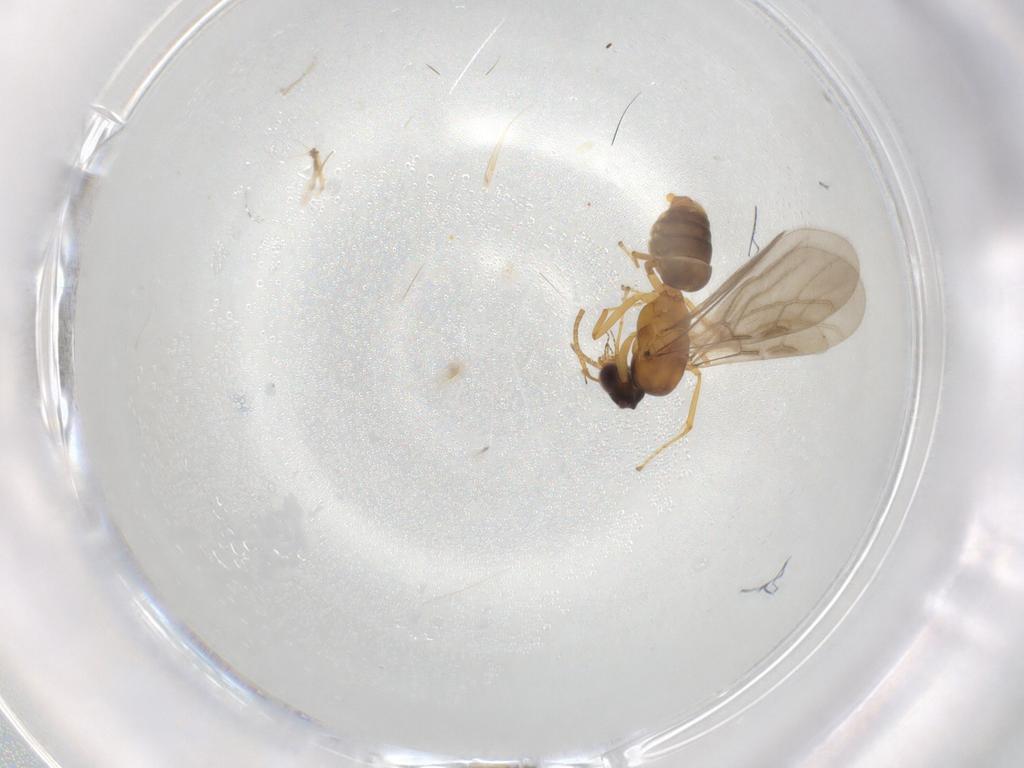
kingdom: Animalia
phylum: Arthropoda
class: Insecta
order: Hymenoptera
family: Formicidae
